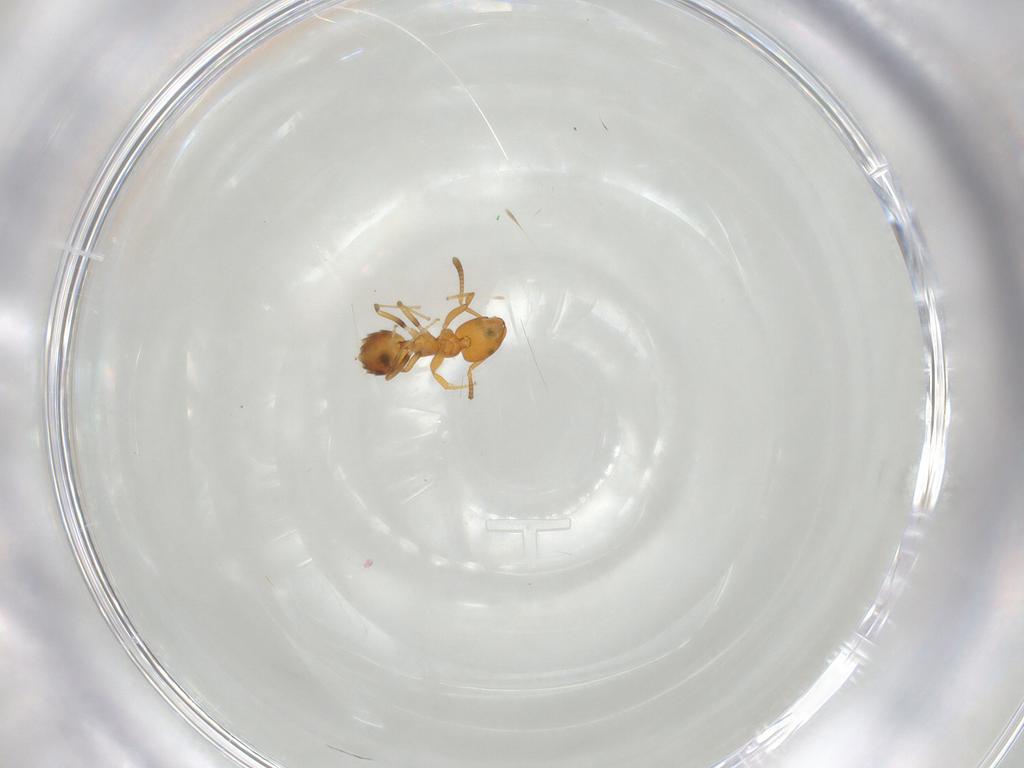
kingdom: Animalia
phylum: Arthropoda
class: Insecta
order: Hymenoptera
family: Formicidae
